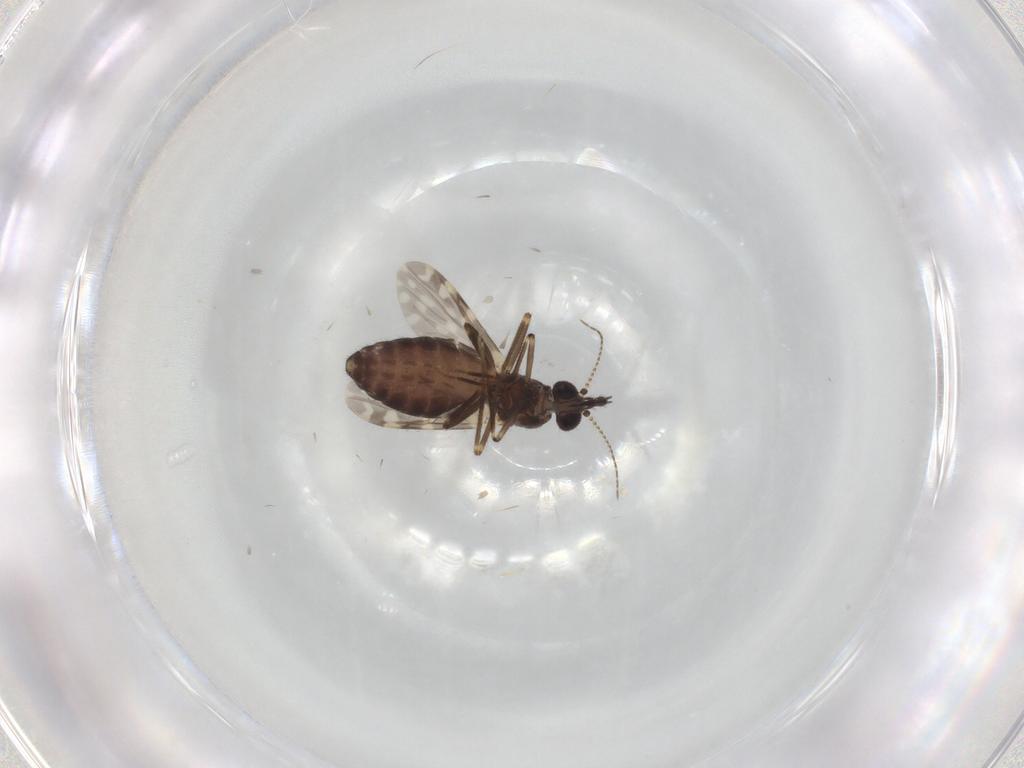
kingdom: Animalia
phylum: Arthropoda
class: Insecta
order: Diptera
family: Ceratopogonidae
